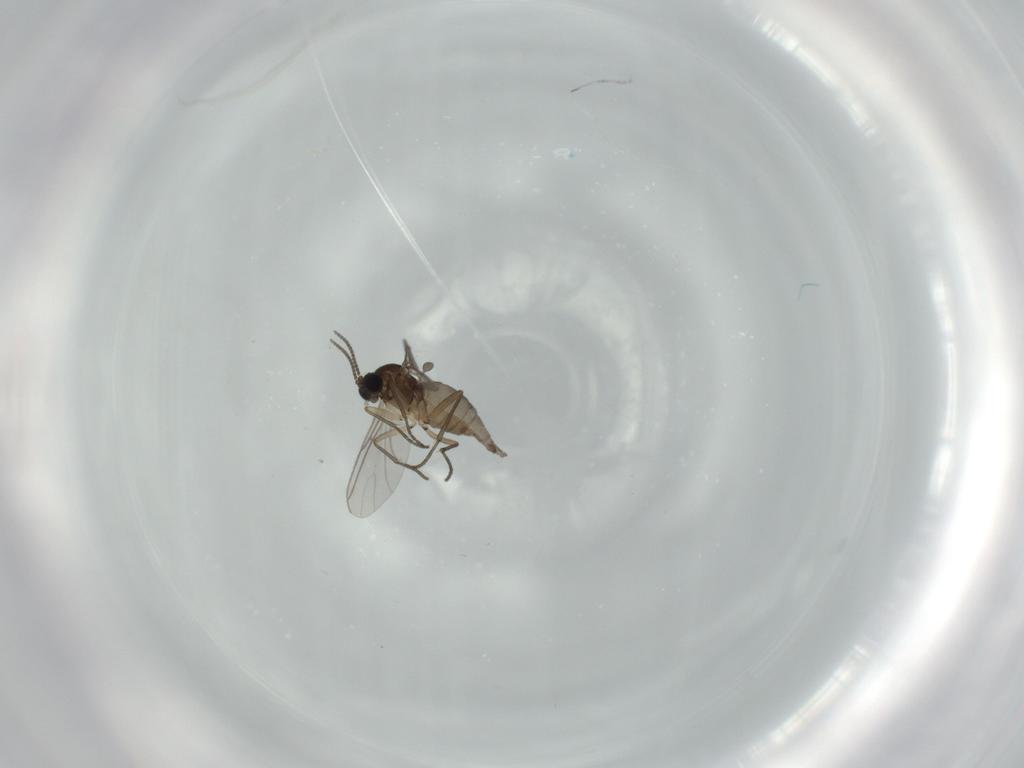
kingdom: Animalia
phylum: Arthropoda
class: Insecta
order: Diptera
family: Sciaridae
